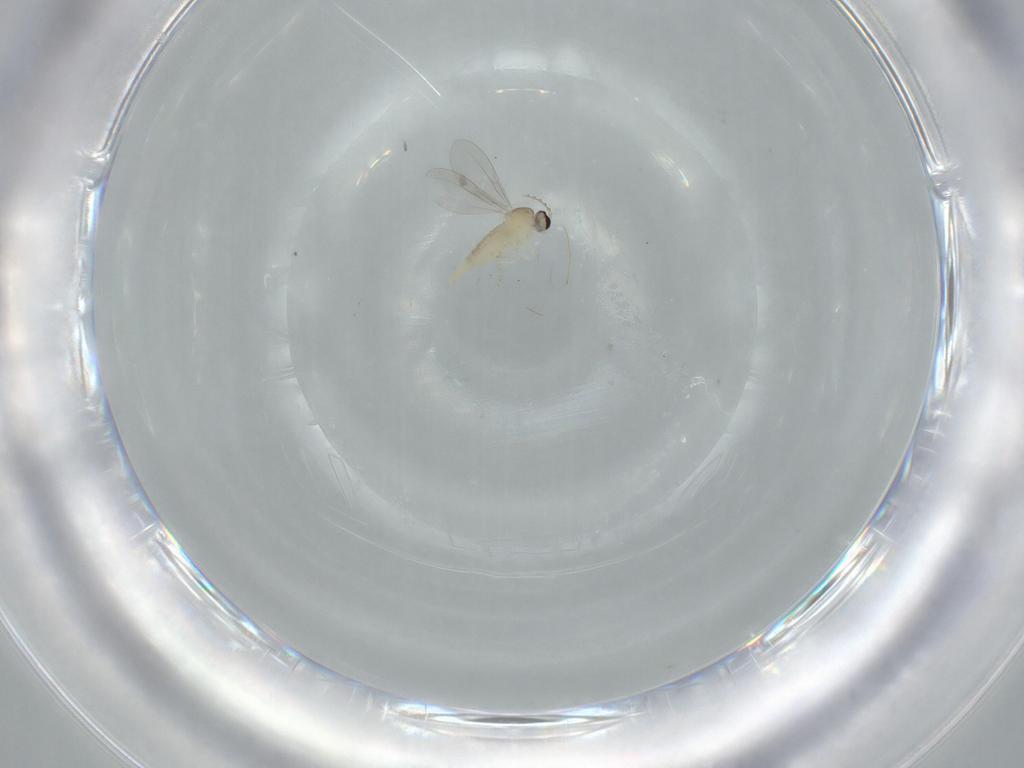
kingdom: Animalia
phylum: Arthropoda
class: Insecta
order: Diptera
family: Cecidomyiidae
